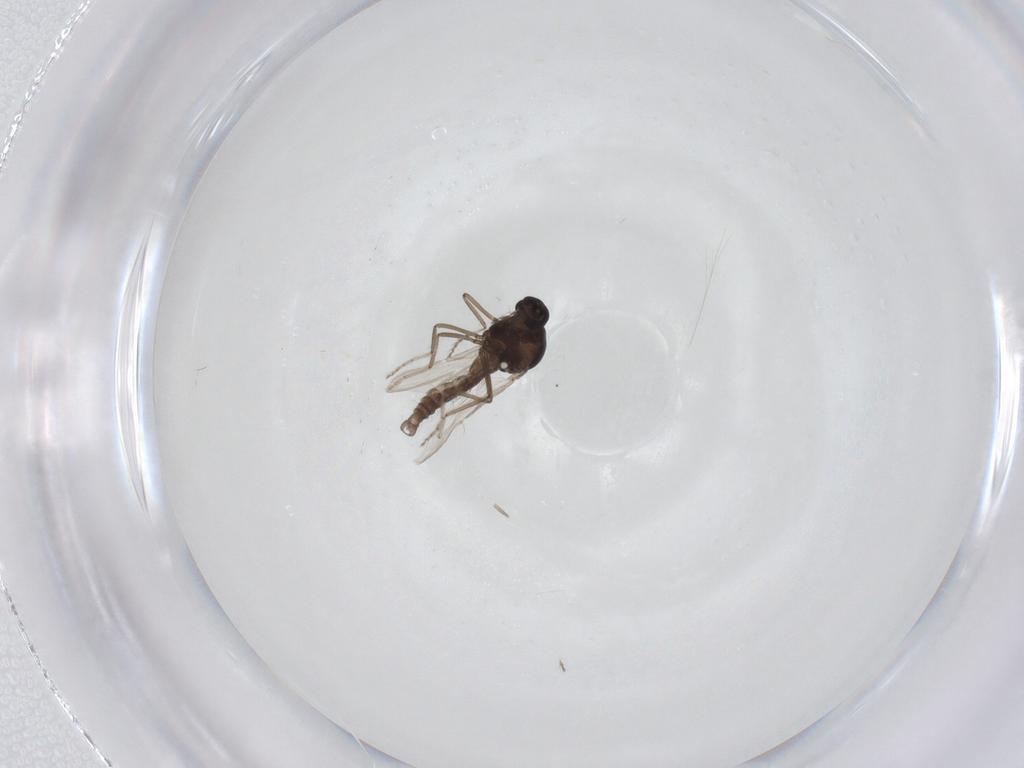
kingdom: Animalia
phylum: Arthropoda
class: Insecta
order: Diptera
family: Ceratopogonidae
